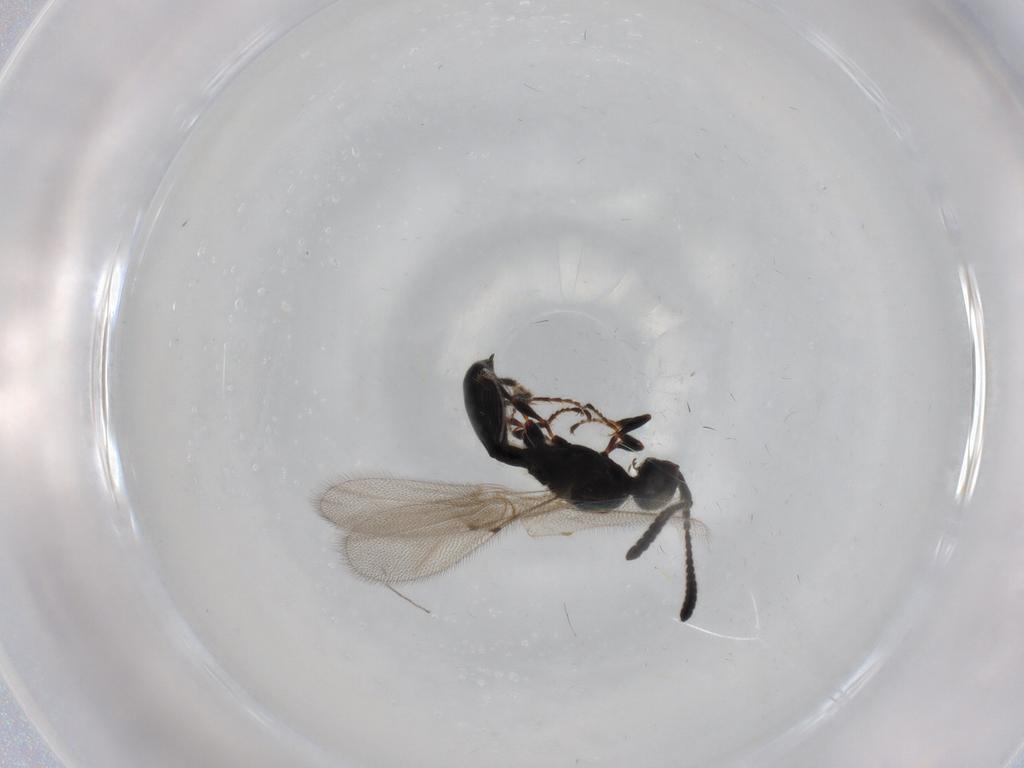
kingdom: Animalia
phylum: Arthropoda
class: Insecta
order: Hymenoptera
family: Diapriidae
